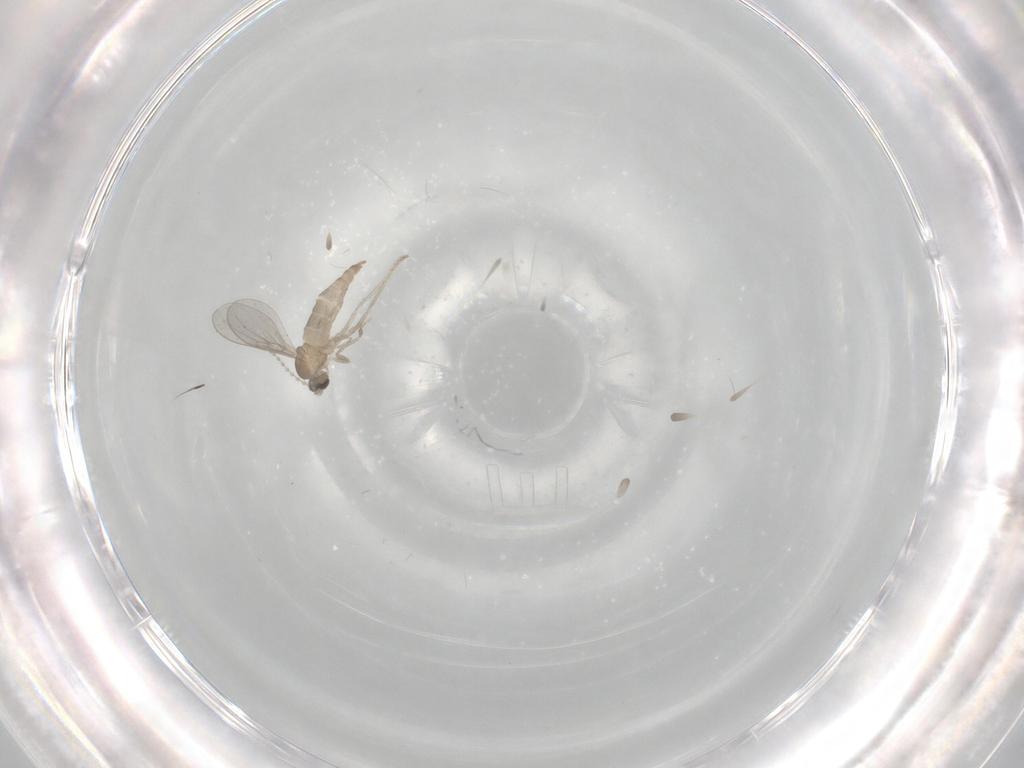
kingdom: Animalia
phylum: Arthropoda
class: Insecta
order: Diptera
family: Cecidomyiidae
